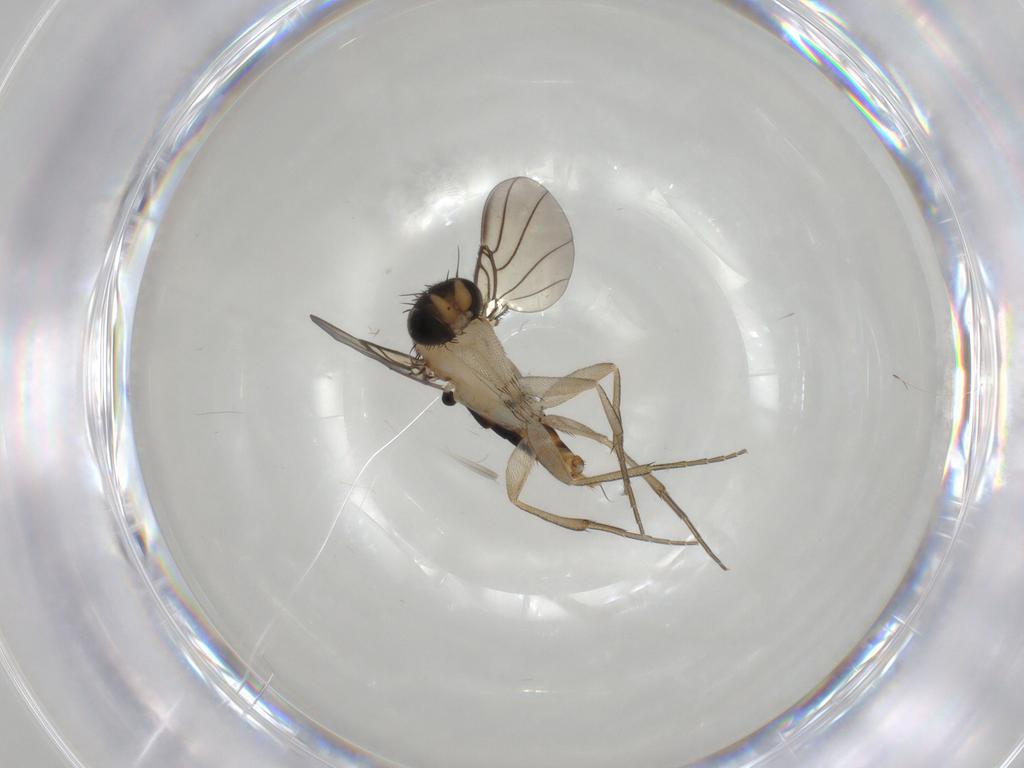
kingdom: Animalia
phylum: Arthropoda
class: Insecta
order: Diptera
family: Phoridae
